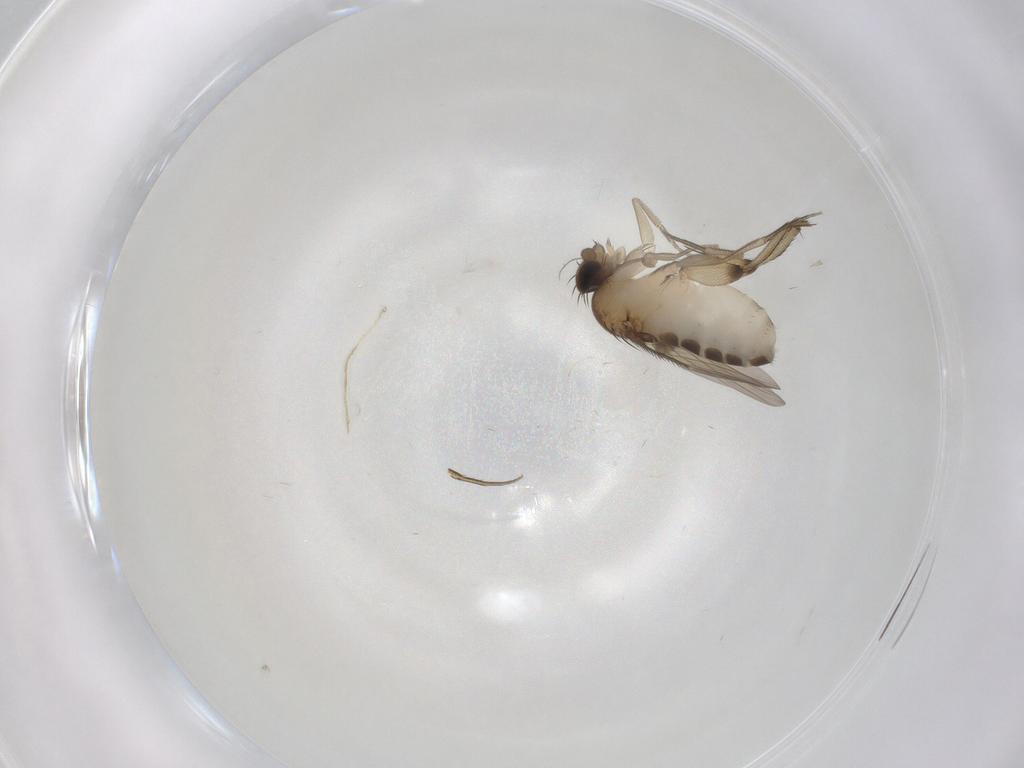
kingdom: Animalia
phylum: Arthropoda
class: Insecta
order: Diptera
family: Phoridae
